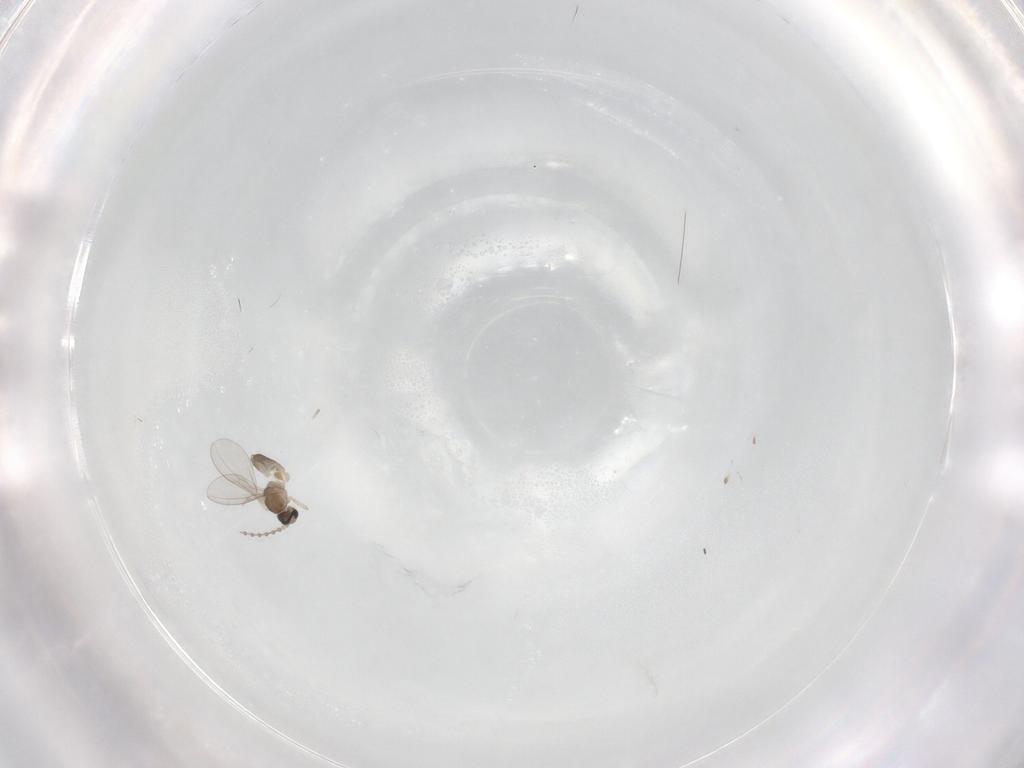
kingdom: Animalia
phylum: Arthropoda
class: Insecta
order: Diptera
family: Cecidomyiidae
